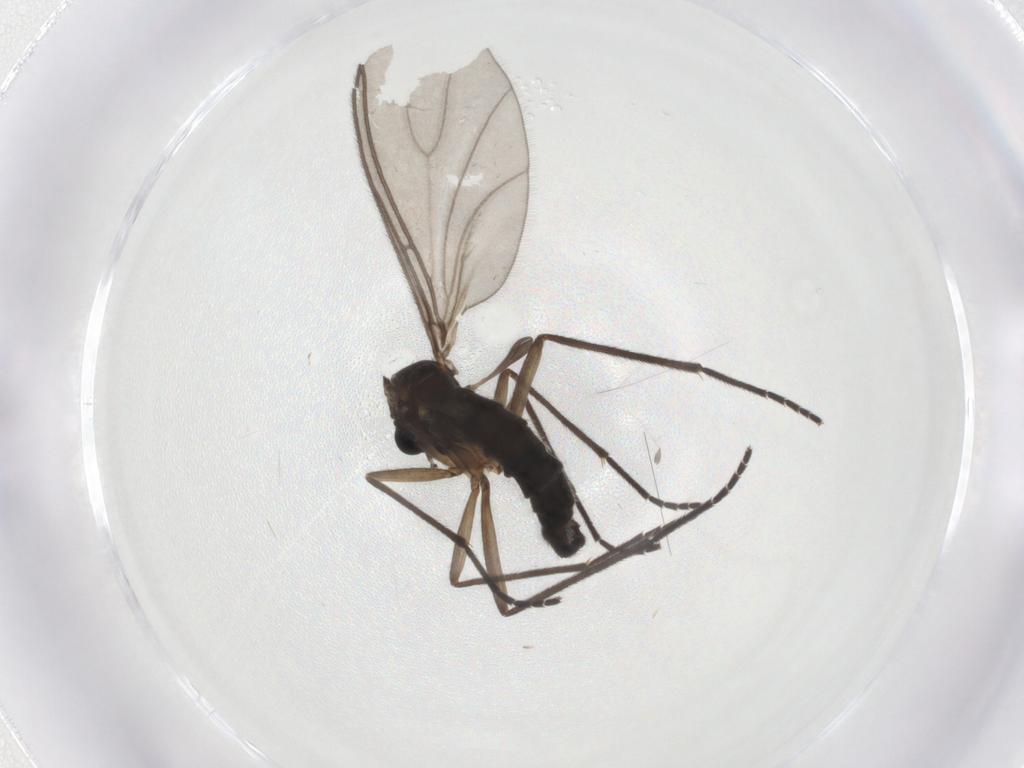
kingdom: Animalia
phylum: Arthropoda
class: Insecta
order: Diptera
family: Sciaridae
